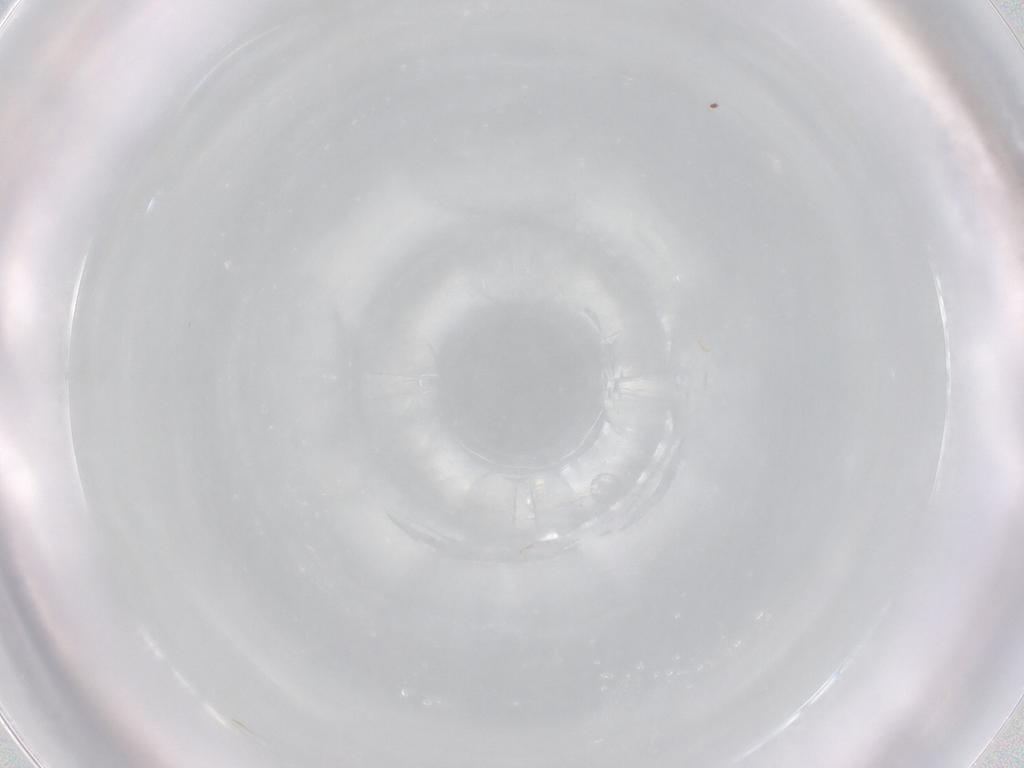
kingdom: Animalia
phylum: Arthropoda
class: Insecta
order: Hymenoptera
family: Trichogrammatidae
